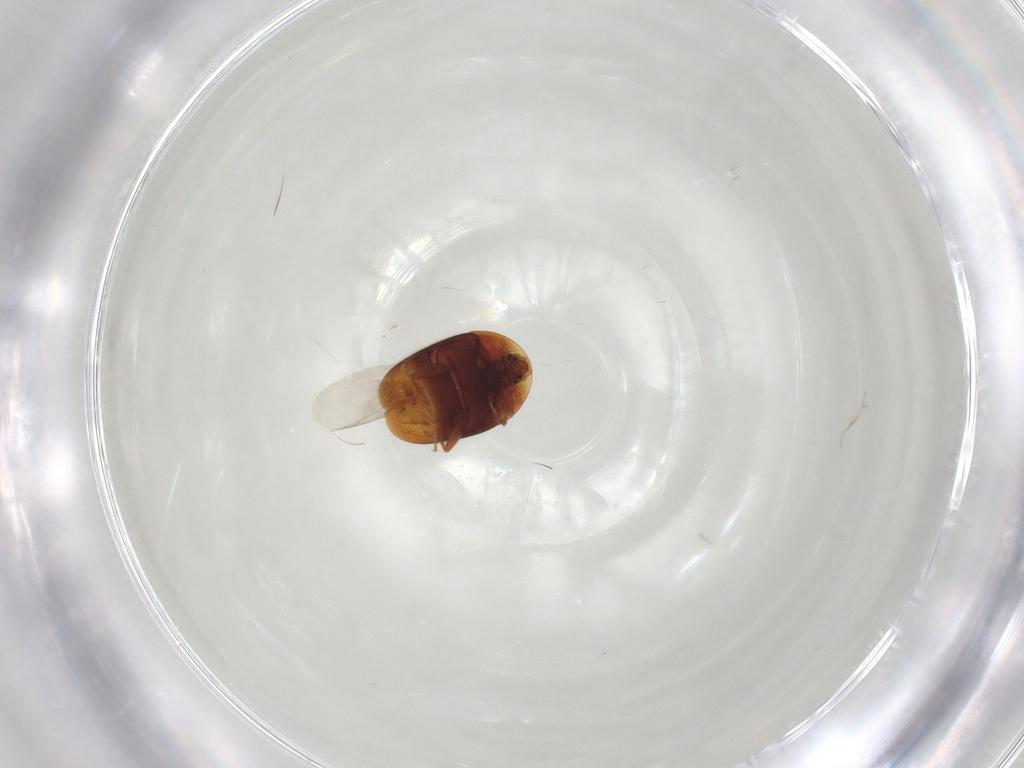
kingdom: Animalia
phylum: Arthropoda
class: Insecta
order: Coleoptera
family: Corylophidae
